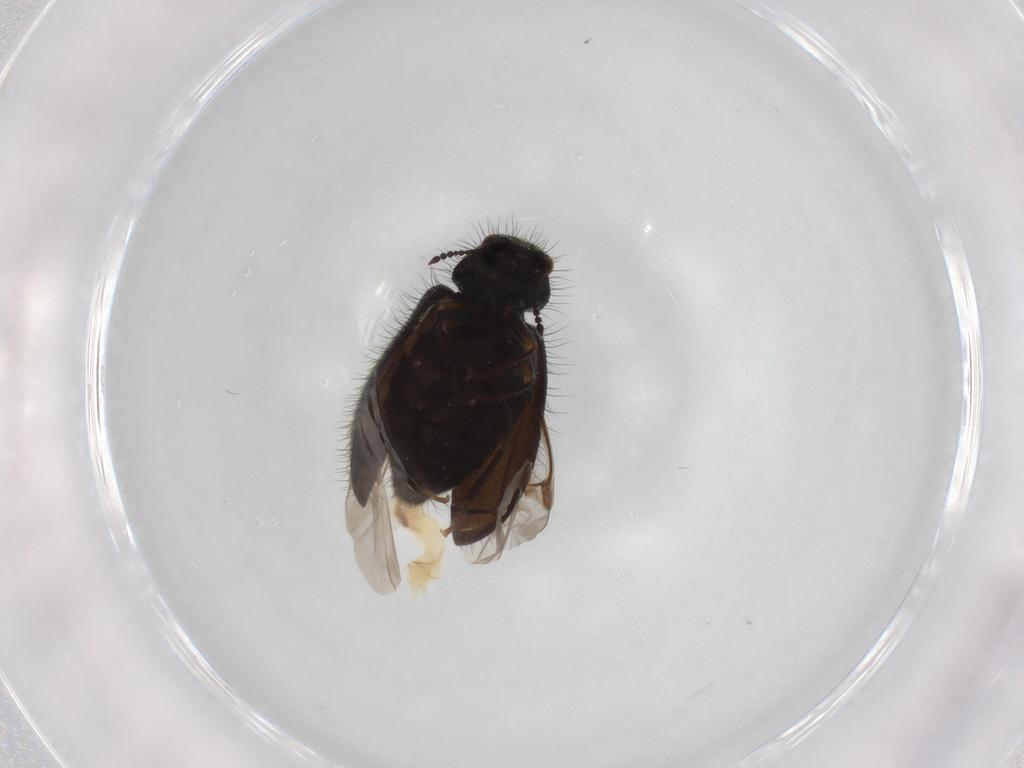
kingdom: Animalia
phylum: Arthropoda
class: Insecta
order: Coleoptera
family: Melyridae
